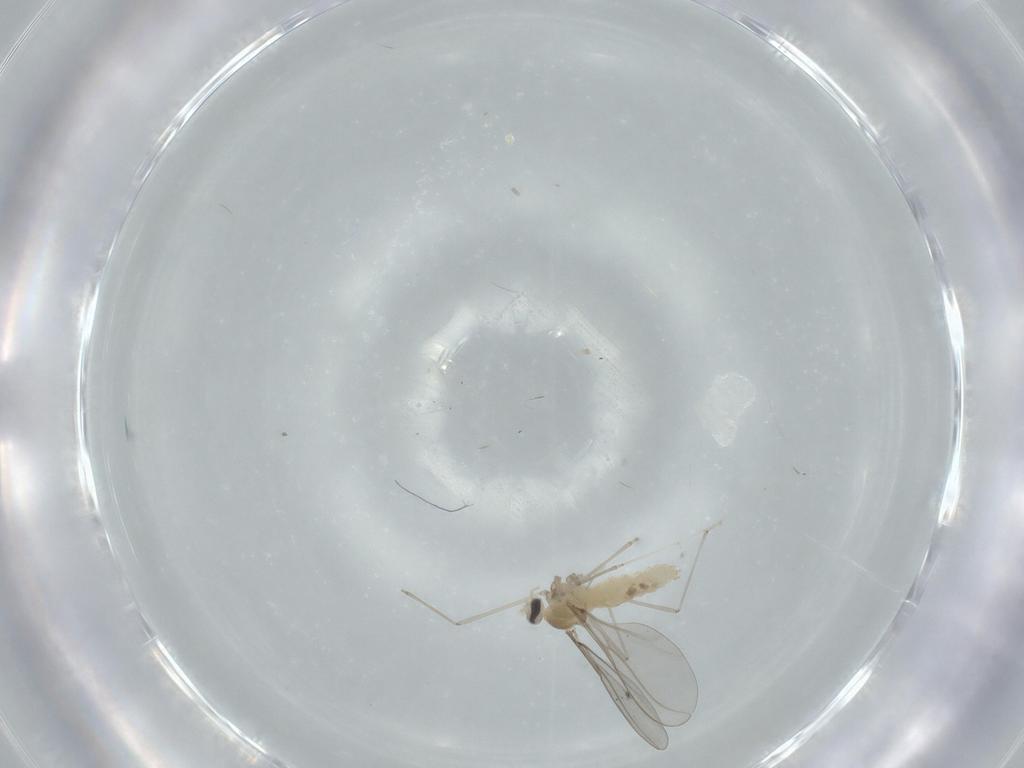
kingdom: Animalia
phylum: Arthropoda
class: Insecta
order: Diptera
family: Cecidomyiidae
